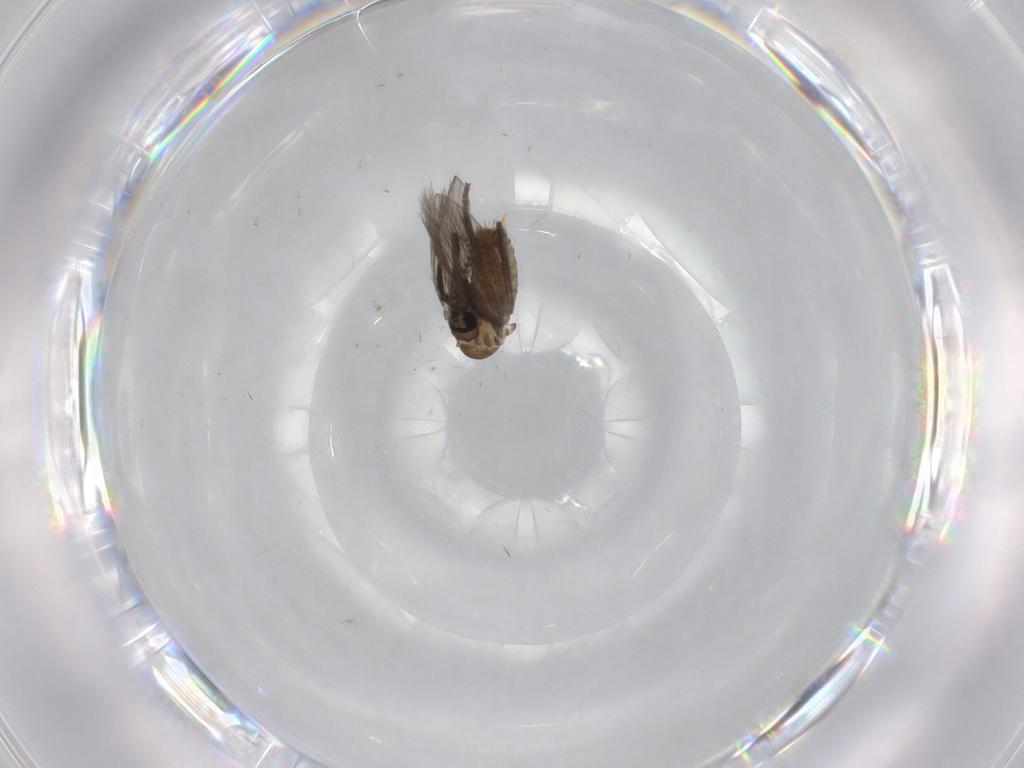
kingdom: Animalia
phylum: Arthropoda
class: Insecta
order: Diptera
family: Psychodidae
